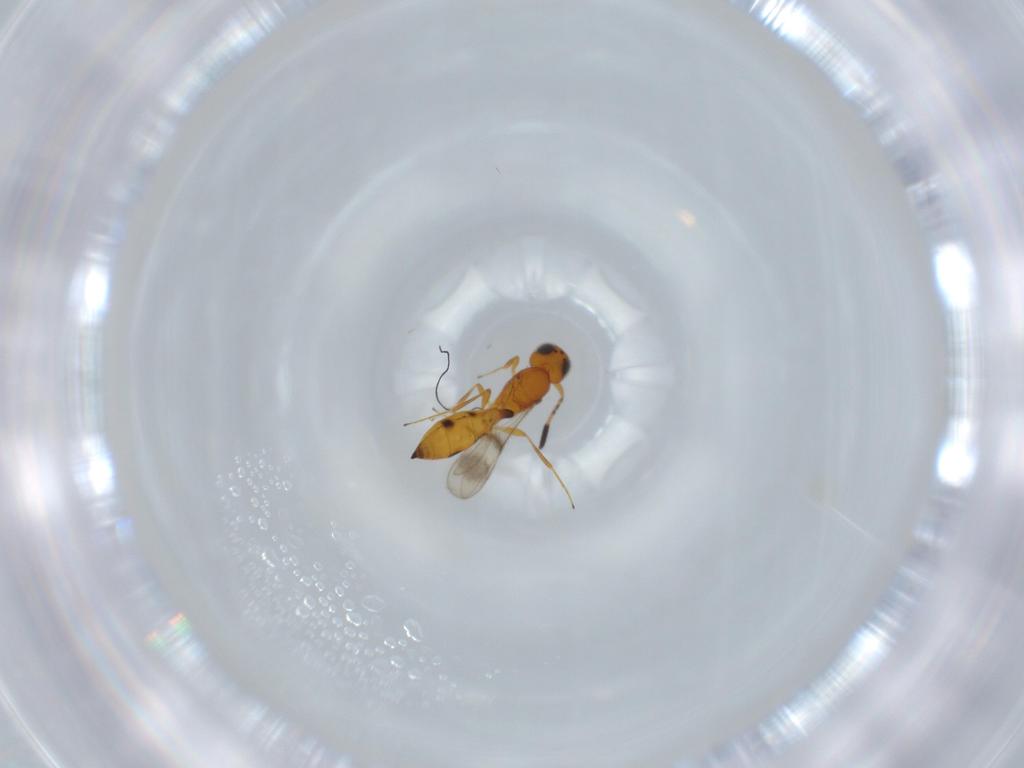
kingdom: Animalia
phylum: Arthropoda
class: Insecta
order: Hymenoptera
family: Scelionidae
